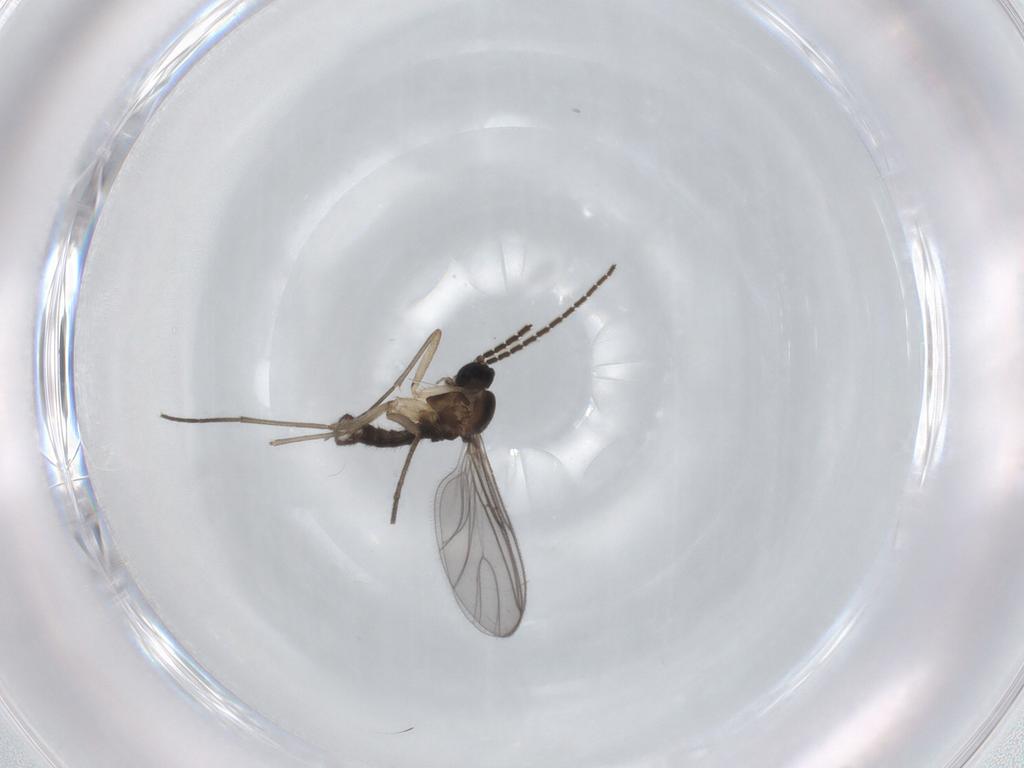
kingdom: Animalia
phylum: Arthropoda
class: Insecta
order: Diptera
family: Sciaridae
